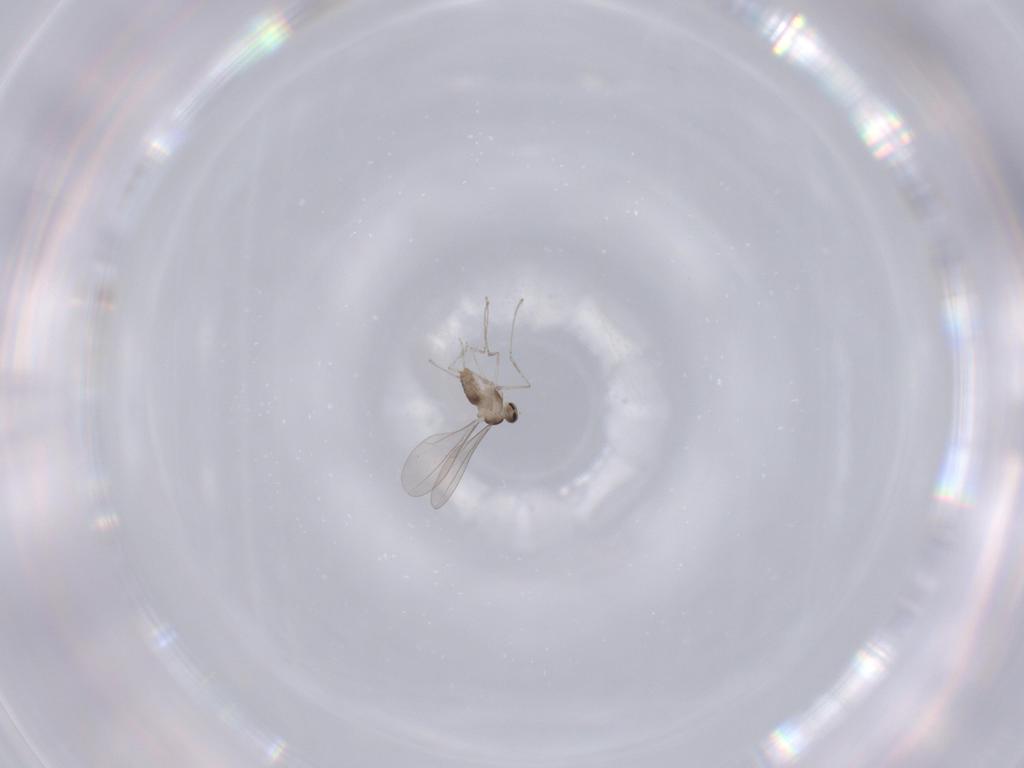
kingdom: Animalia
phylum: Arthropoda
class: Insecta
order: Diptera
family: Cecidomyiidae
